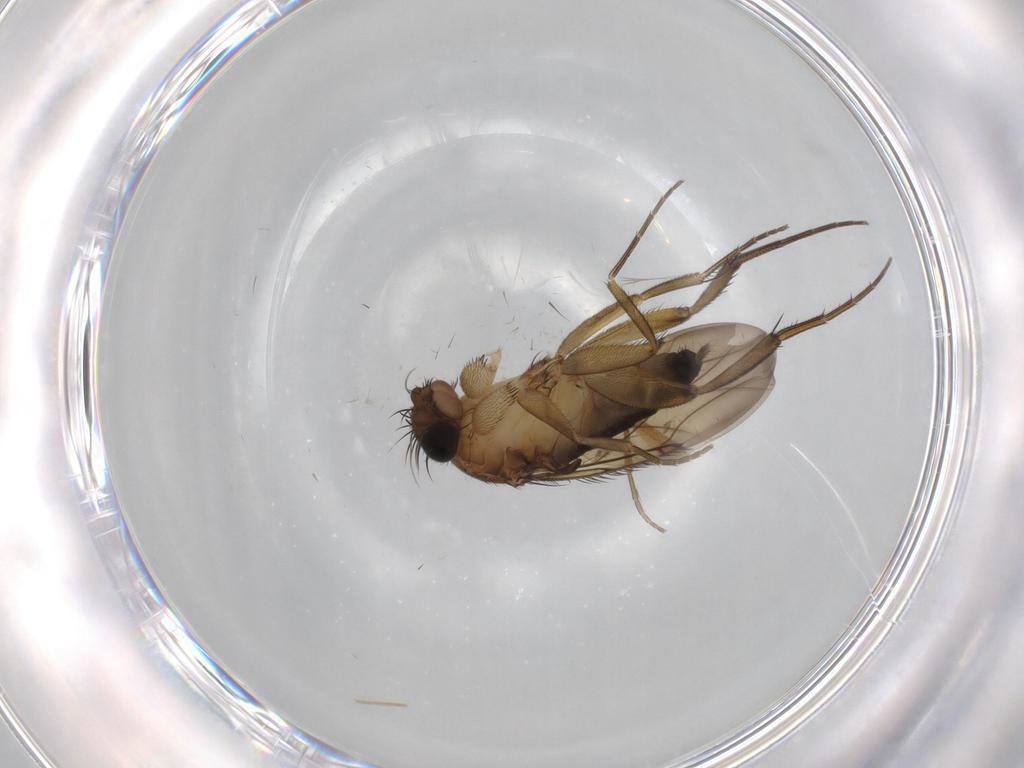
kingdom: Animalia
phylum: Arthropoda
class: Insecta
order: Diptera
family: Phoridae
